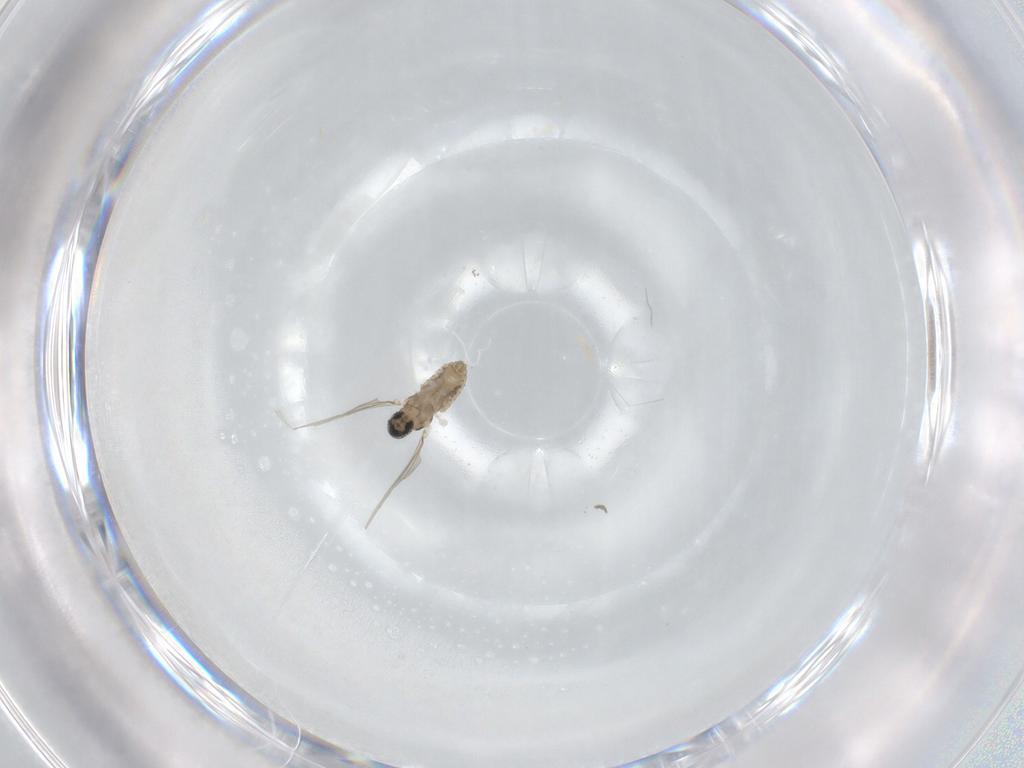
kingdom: Animalia
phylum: Arthropoda
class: Insecta
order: Diptera
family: Cecidomyiidae
